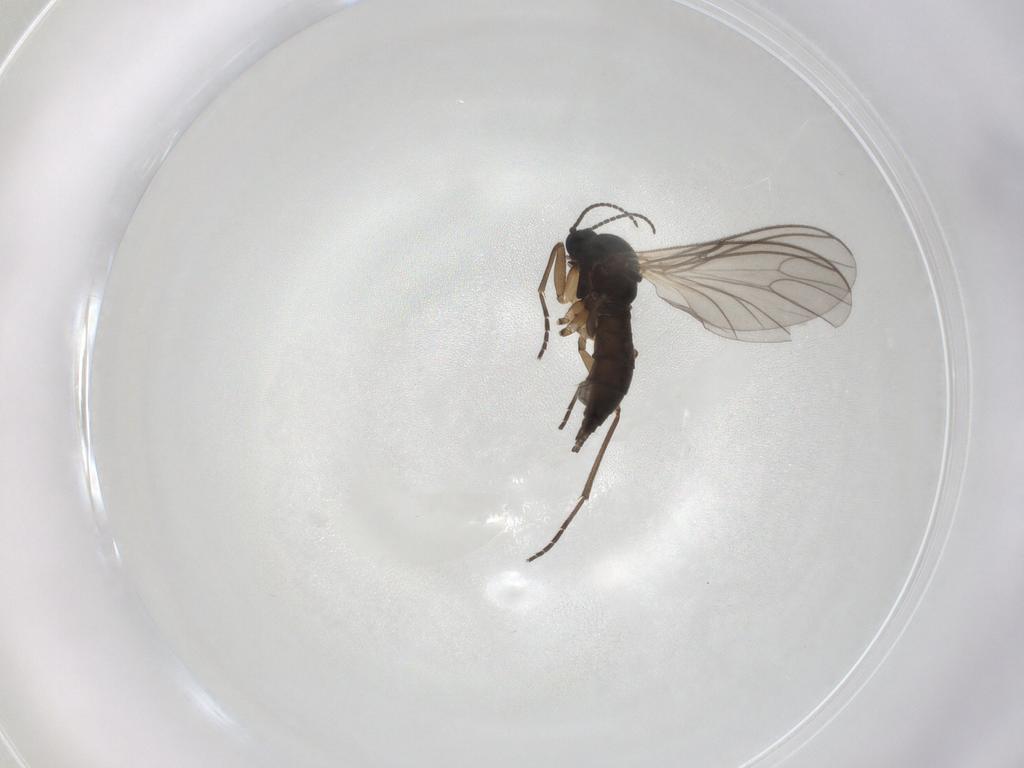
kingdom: Animalia
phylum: Arthropoda
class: Insecta
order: Diptera
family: Sciaridae
